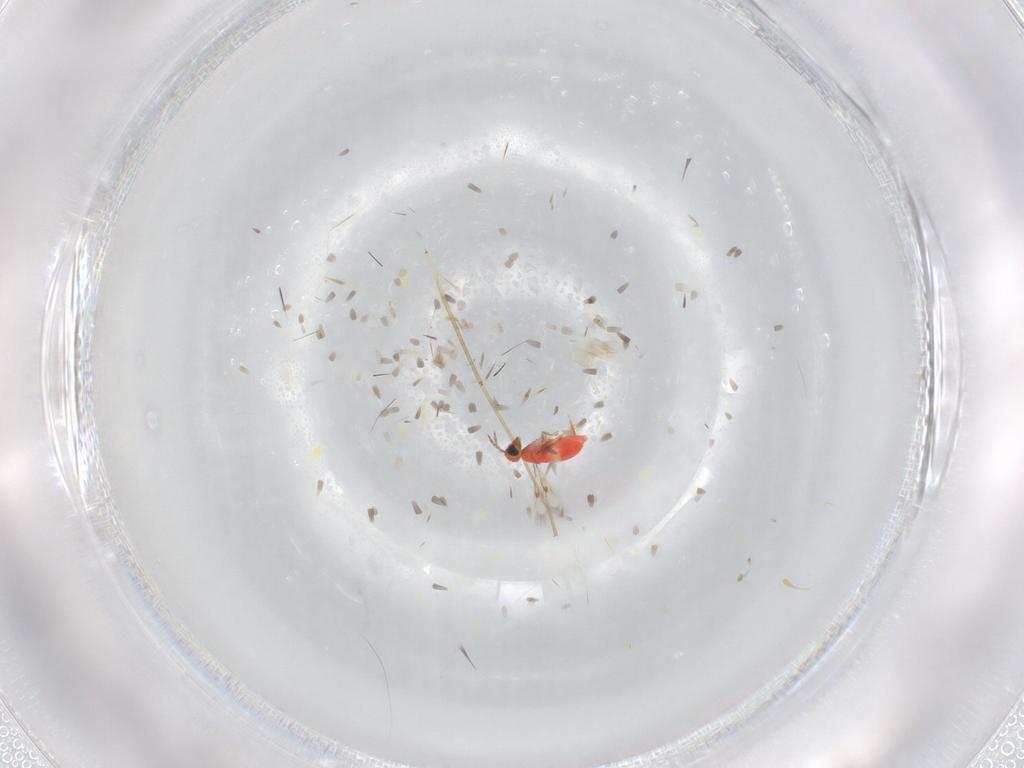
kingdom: Animalia
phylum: Arthropoda
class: Insecta
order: Hymenoptera
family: Trichogrammatidae
